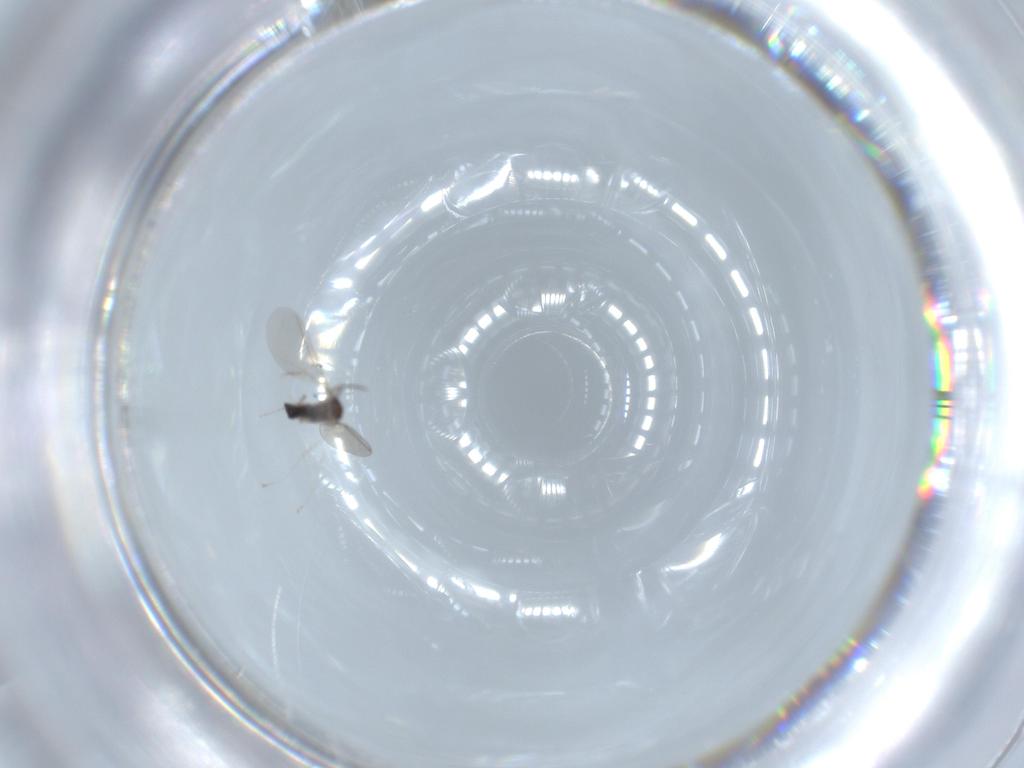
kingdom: Animalia
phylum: Arthropoda
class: Insecta
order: Diptera
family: Cecidomyiidae
